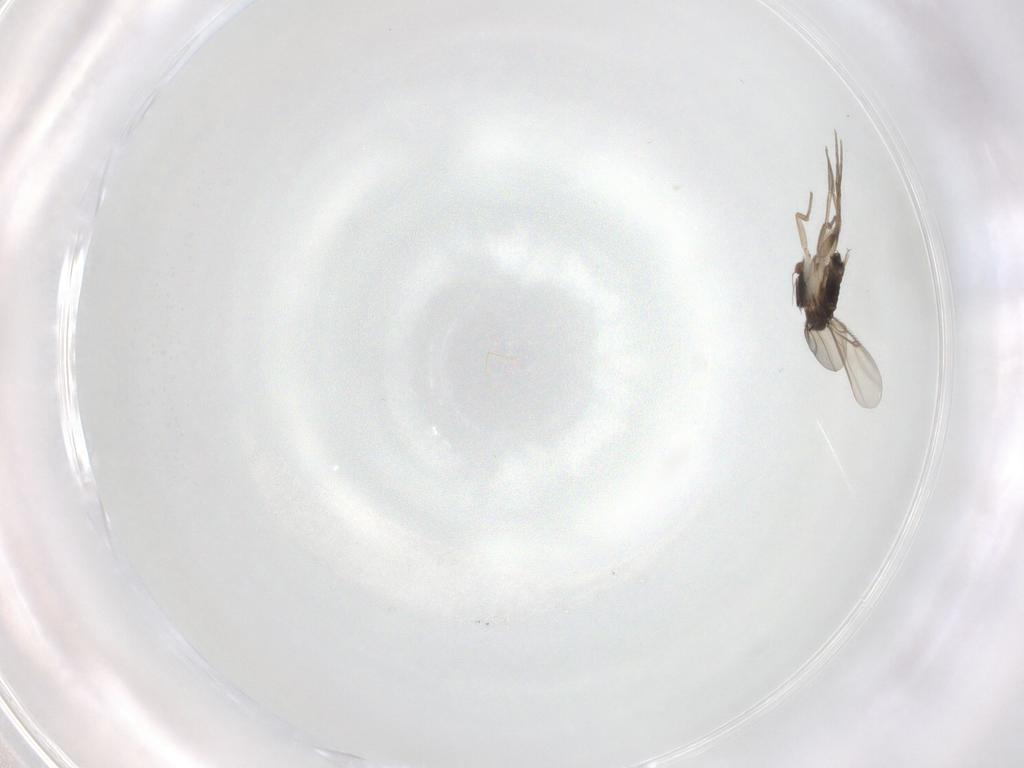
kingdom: Animalia
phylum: Arthropoda
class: Insecta
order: Diptera
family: Phoridae
